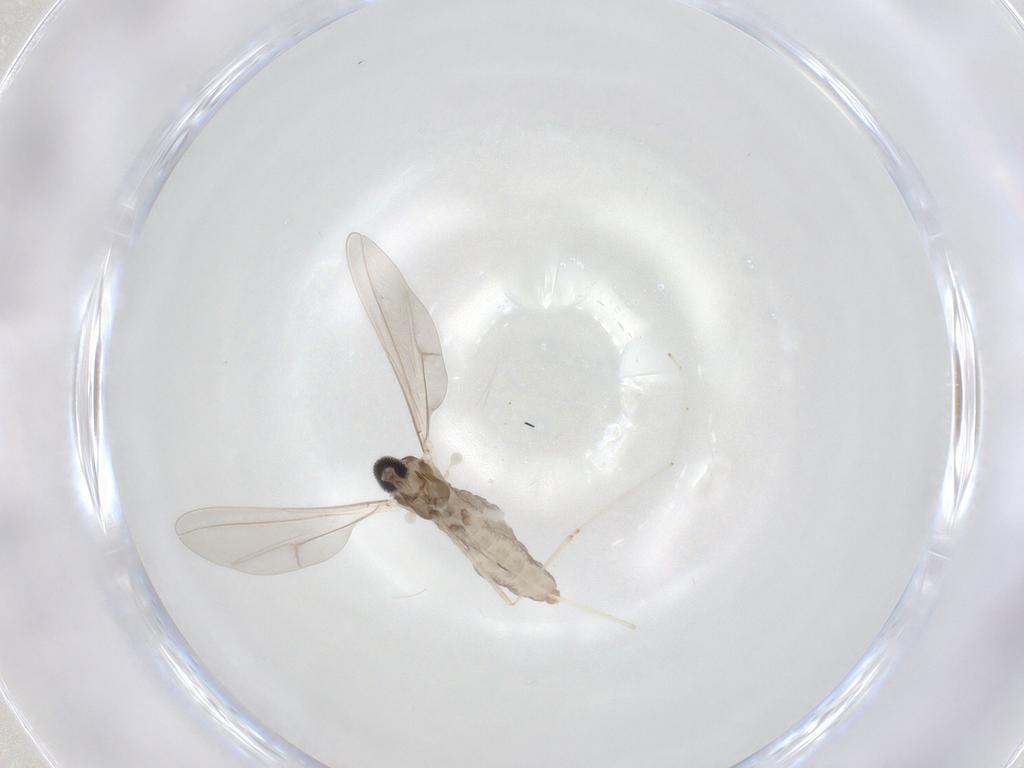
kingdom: Animalia
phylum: Arthropoda
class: Insecta
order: Diptera
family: Cecidomyiidae
